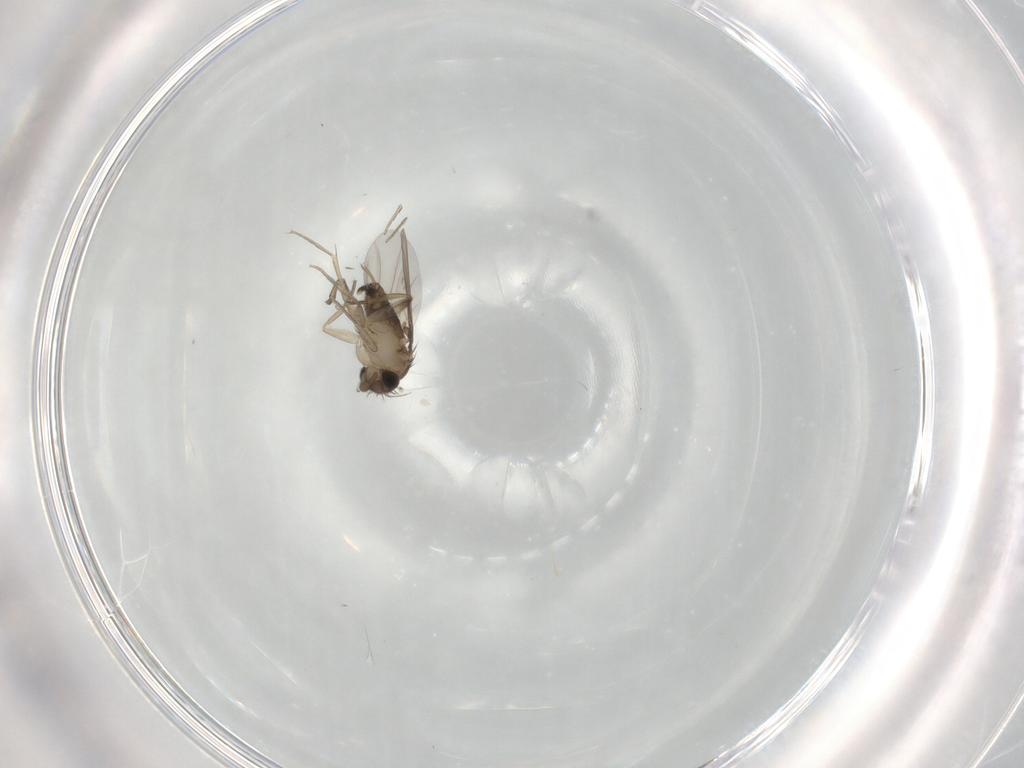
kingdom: Animalia
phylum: Arthropoda
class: Insecta
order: Diptera
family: Phoridae
